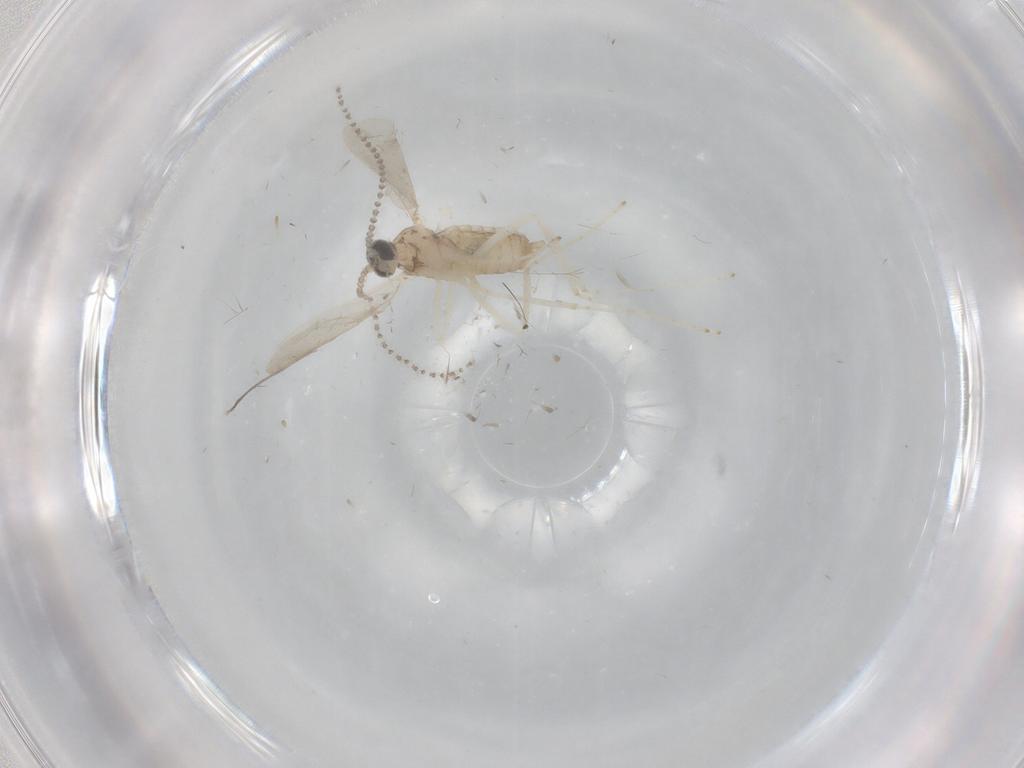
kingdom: Animalia
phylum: Arthropoda
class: Insecta
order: Diptera
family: Cecidomyiidae
